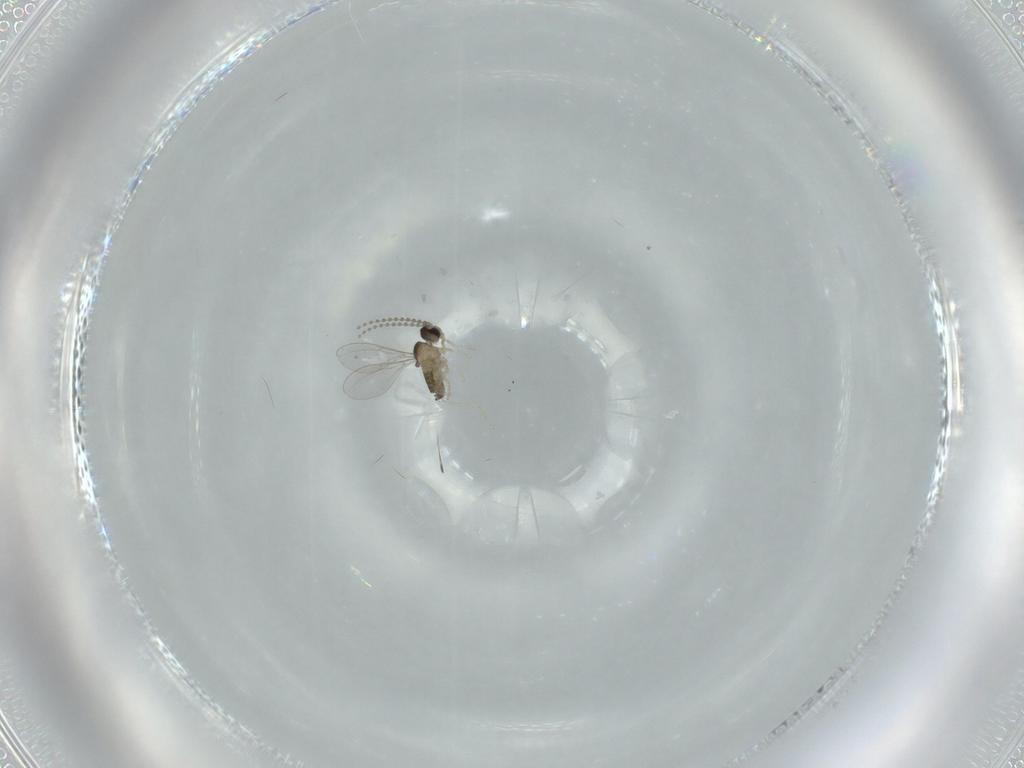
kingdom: Animalia
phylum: Arthropoda
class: Insecta
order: Diptera
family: Cecidomyiidae
